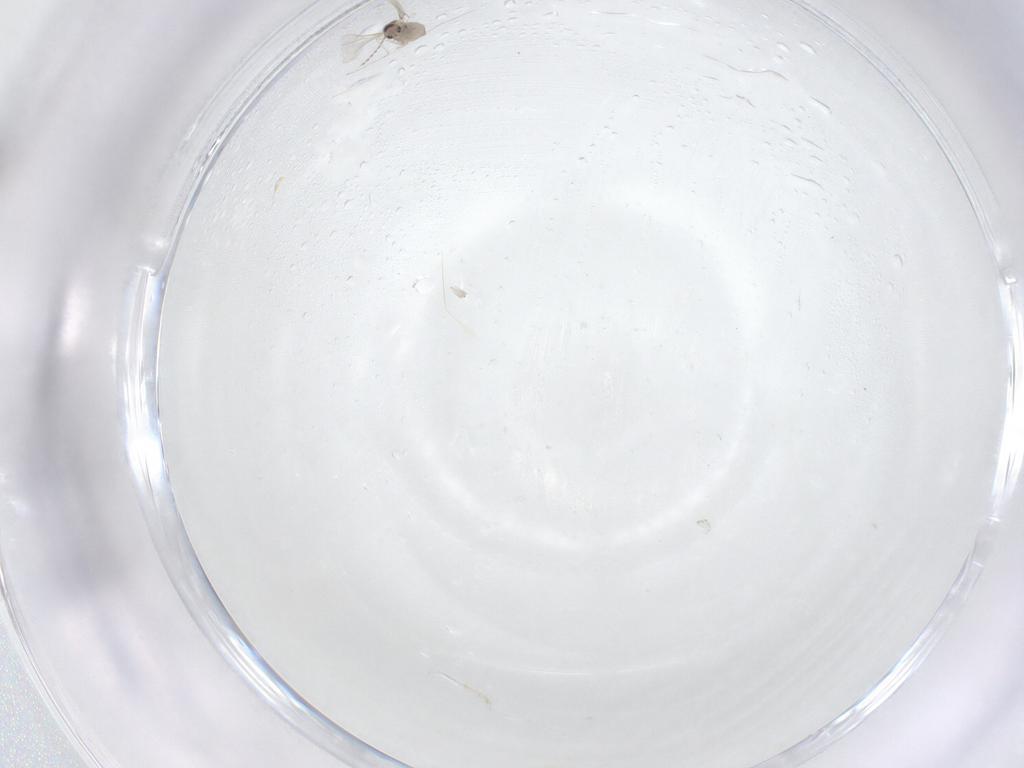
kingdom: Animalia
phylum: Arthropoda
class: Insecta
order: Diptera
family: Cecidomyiidae
